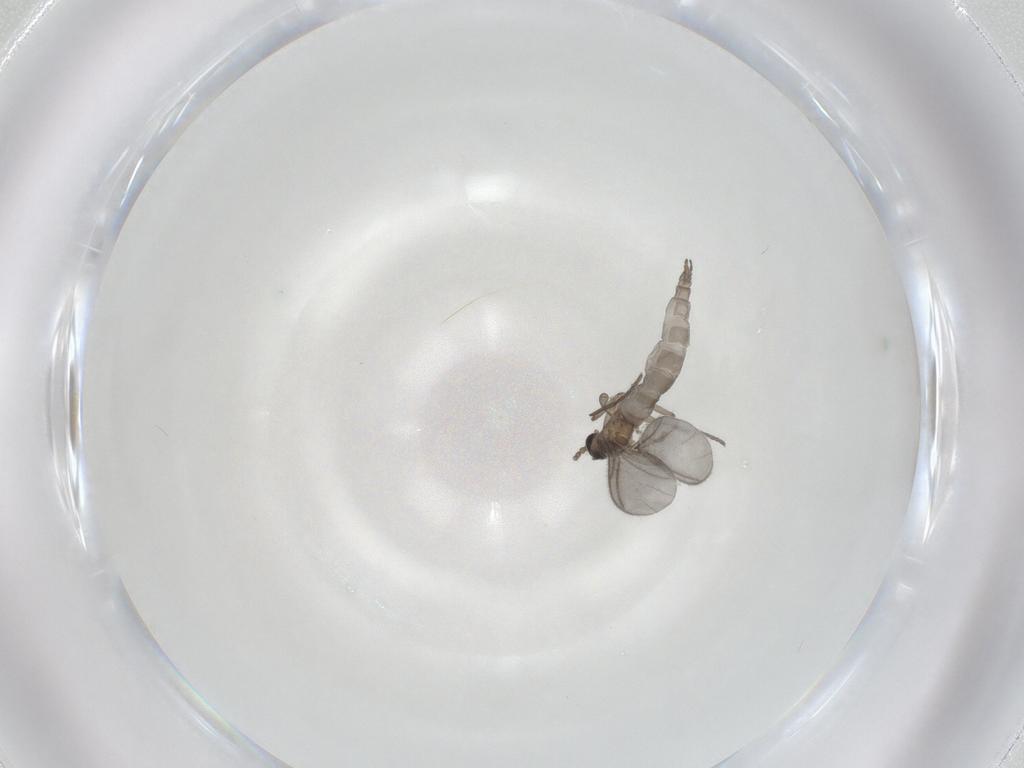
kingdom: Animalia
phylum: Arthropoda
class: Insecta
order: Diptera
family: Sciaridae
